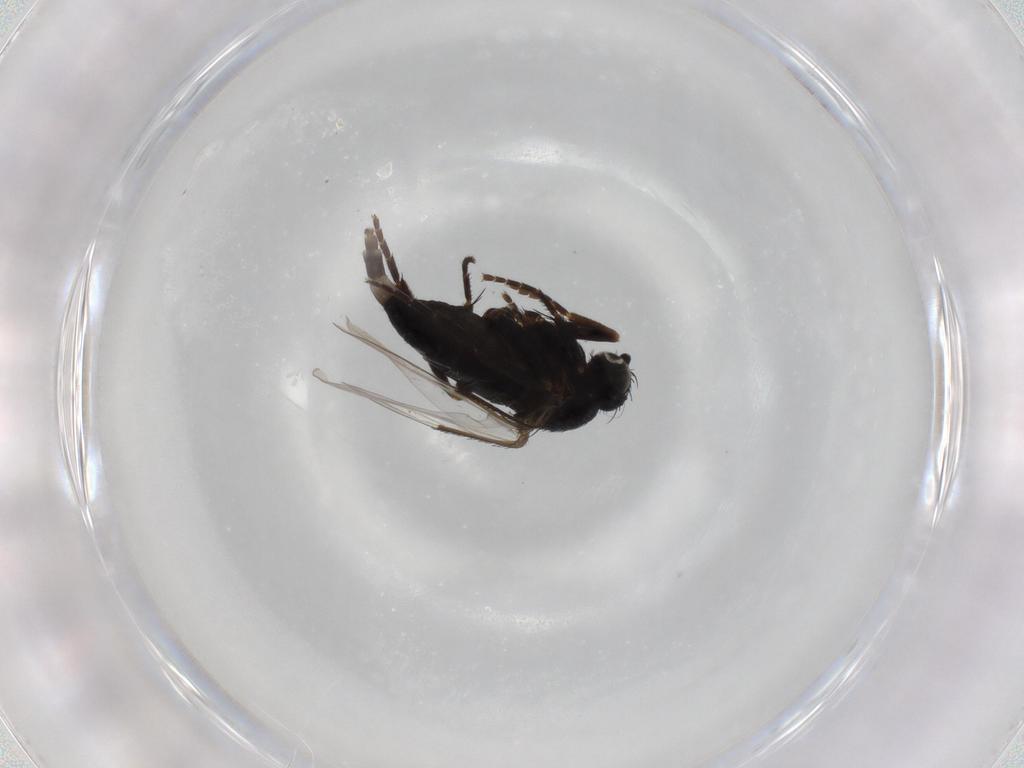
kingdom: Animalia
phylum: Arthropoda
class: Insecta
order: Diptera
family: Dolichopodidae
